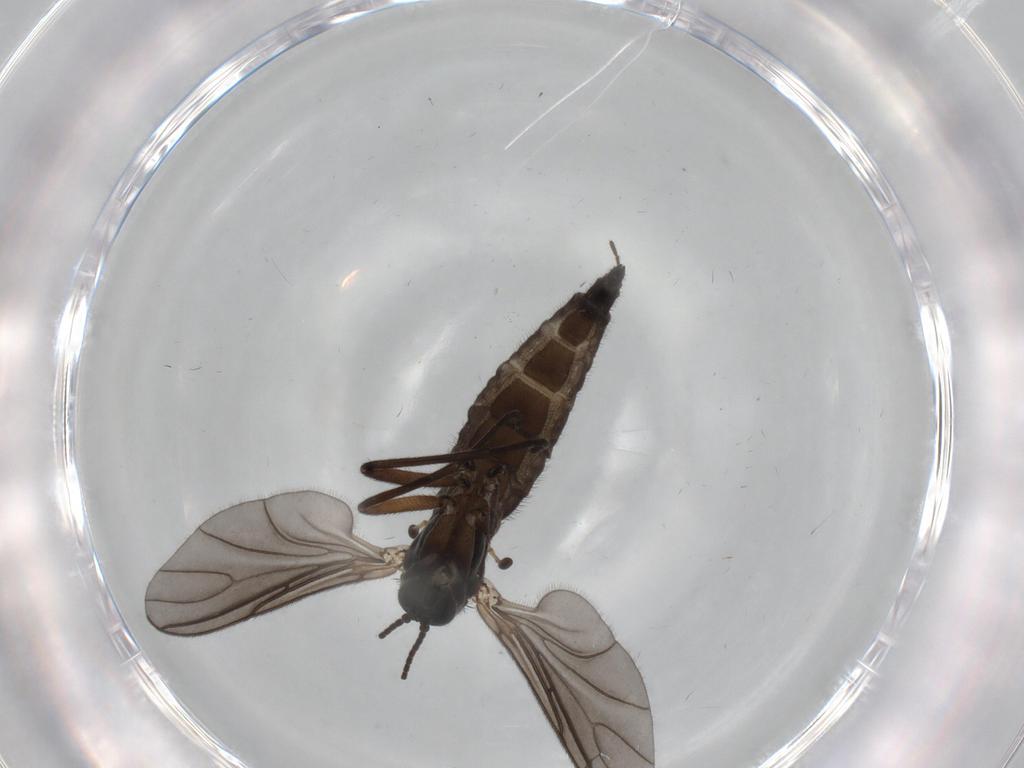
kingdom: Animalia
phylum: Arthropoda
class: Insecta
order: Diptera
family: Sciaridae
